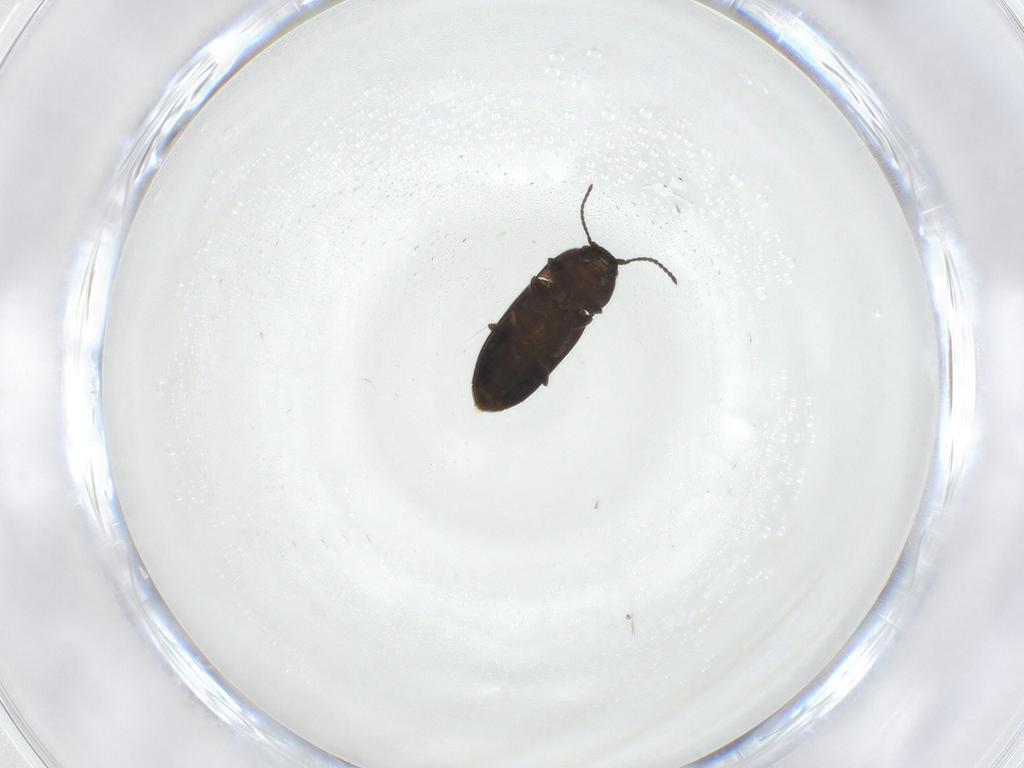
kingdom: Animalia
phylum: Arthropoda
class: Insecta
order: Coleoptera
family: Elateridae
